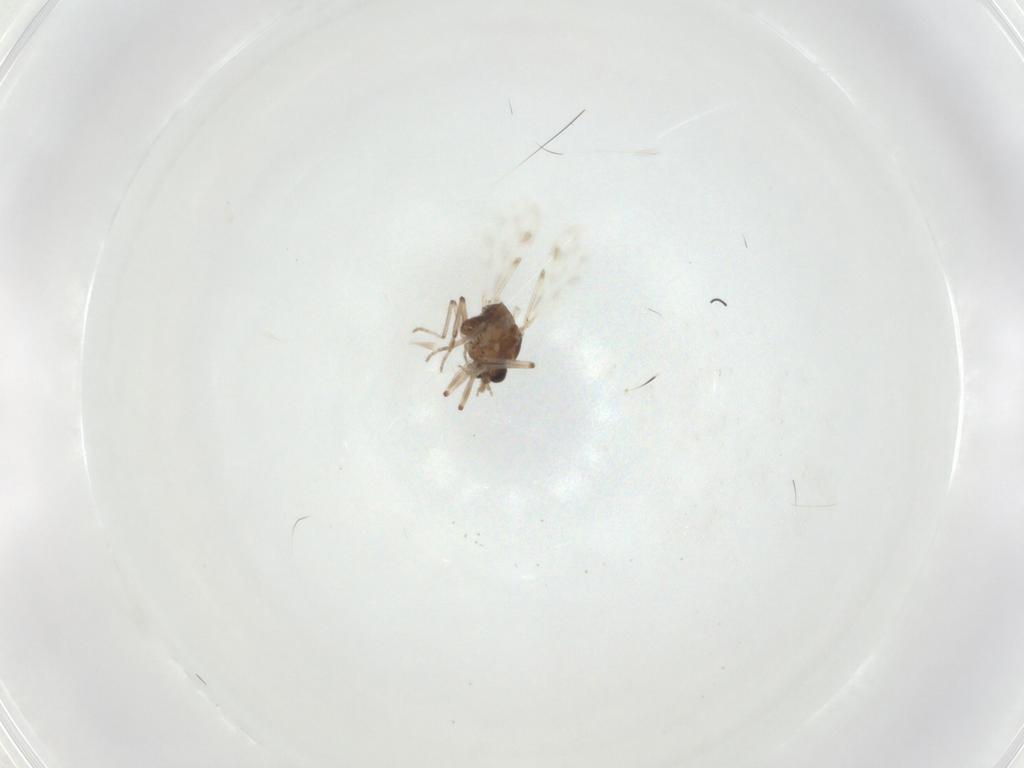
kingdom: Animalia
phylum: Arthropoda
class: Insecta
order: Diptera
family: Ceratopogonidae
